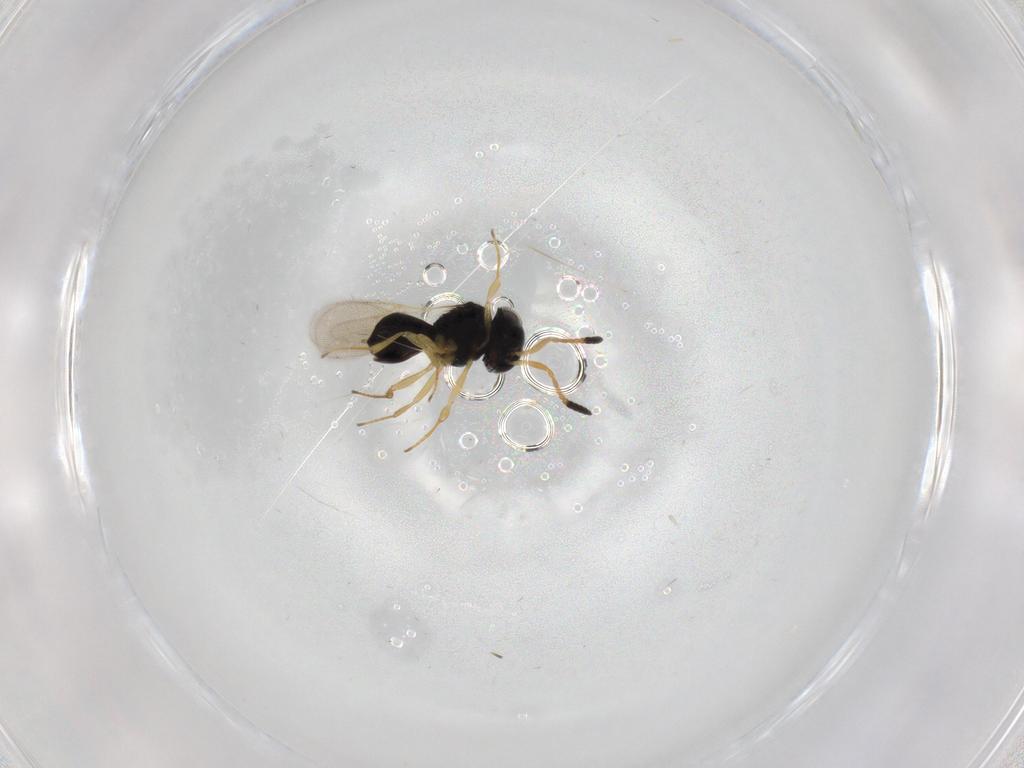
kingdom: Animalia
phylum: Arthropoda
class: Insecta
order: Hymenoptera
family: Scelionidae
